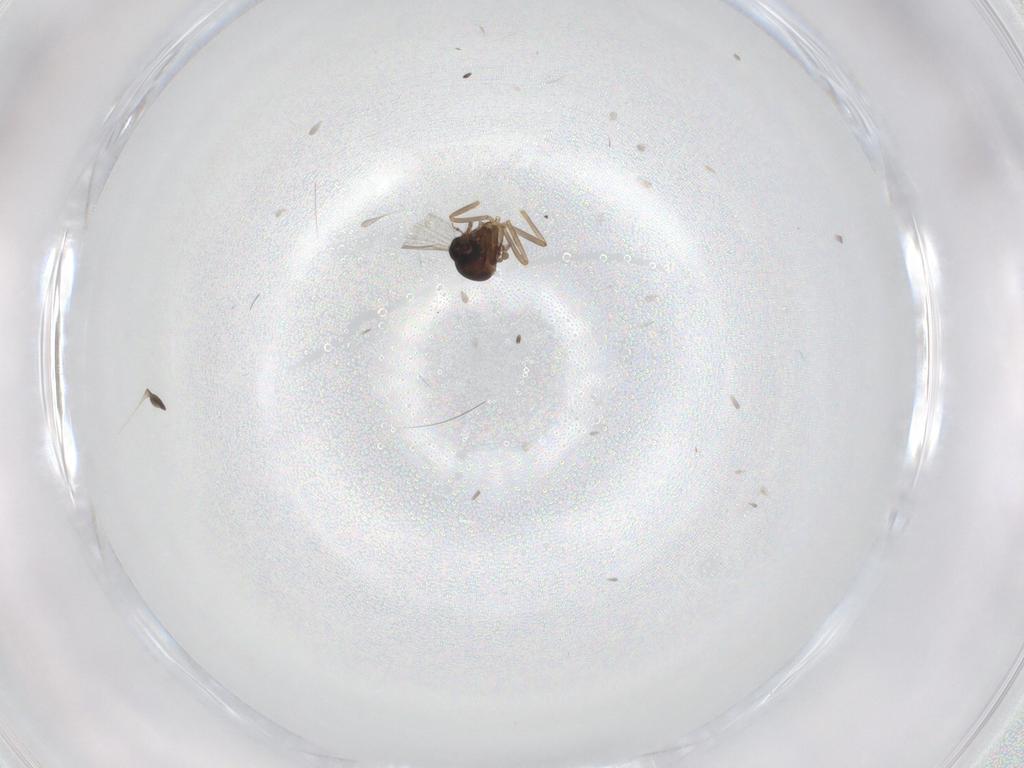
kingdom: Animalia
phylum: Arthropoda
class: Insecta
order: Diptera
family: Ceratopogonidae
